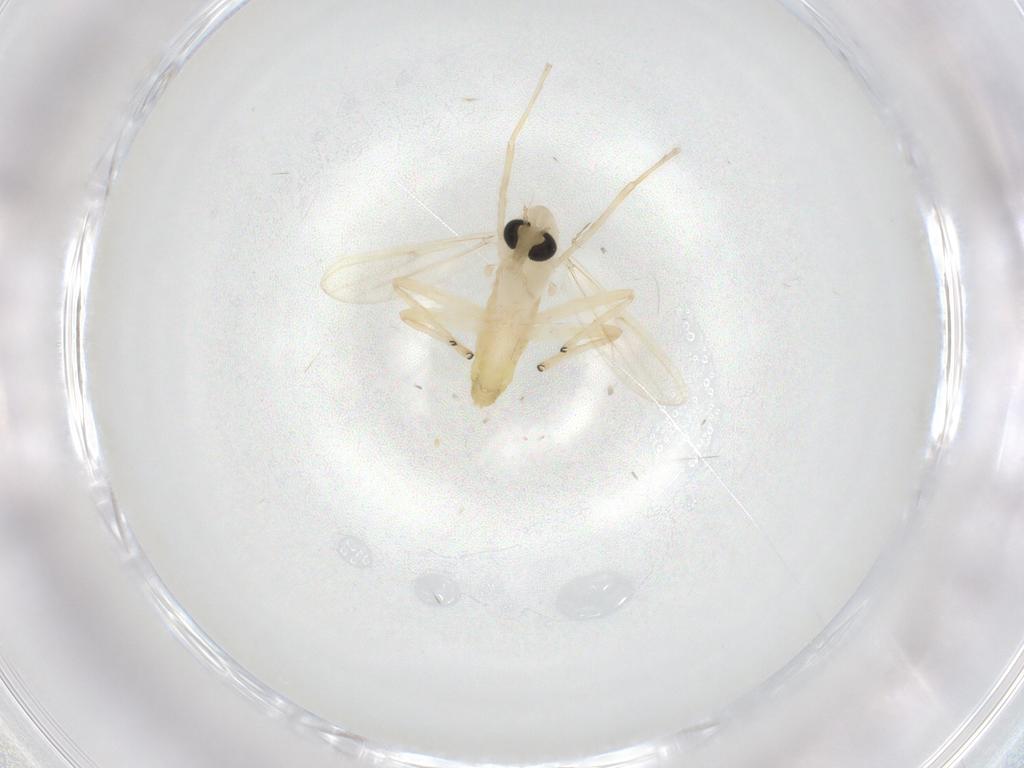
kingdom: Animalia
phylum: Arthropoda
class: Insecta
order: Diptera
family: Chironomidae
